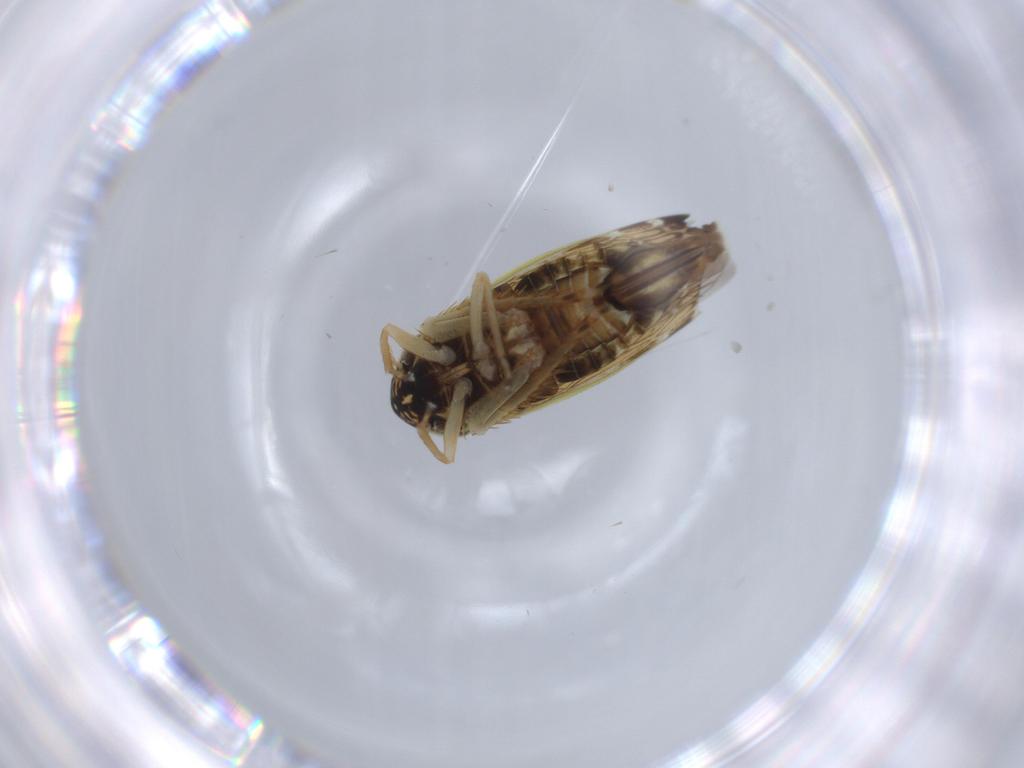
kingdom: Animalia
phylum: Arthropoda
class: Insecta
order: Hemiptera
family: Cicadellidae
